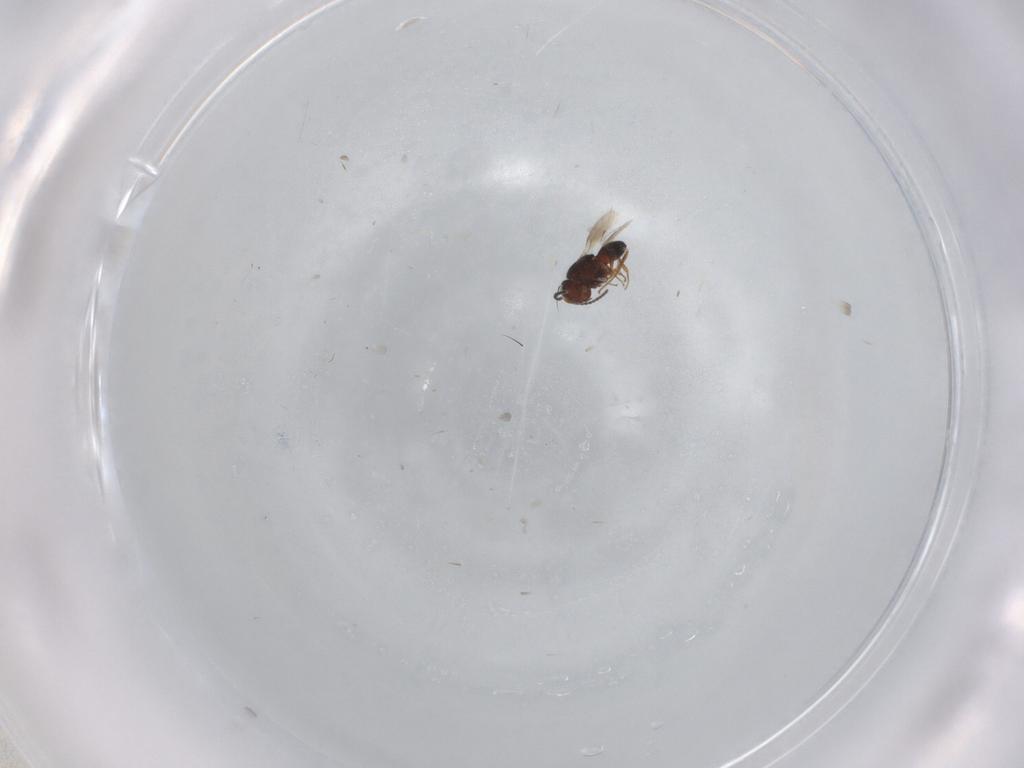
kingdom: Animalia
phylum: Arthropoda
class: Insecta
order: Hymenoptera
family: Scelionidae
